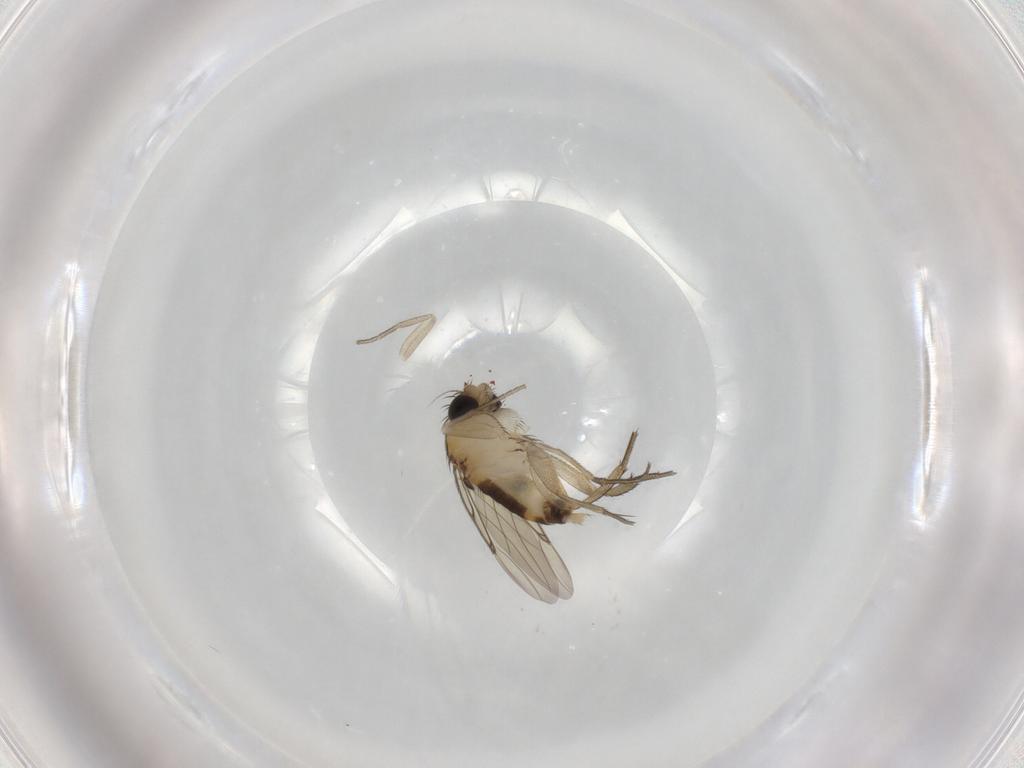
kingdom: Animalia
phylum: Arthropoda
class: Insecta
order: Diptera
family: Phoridae
